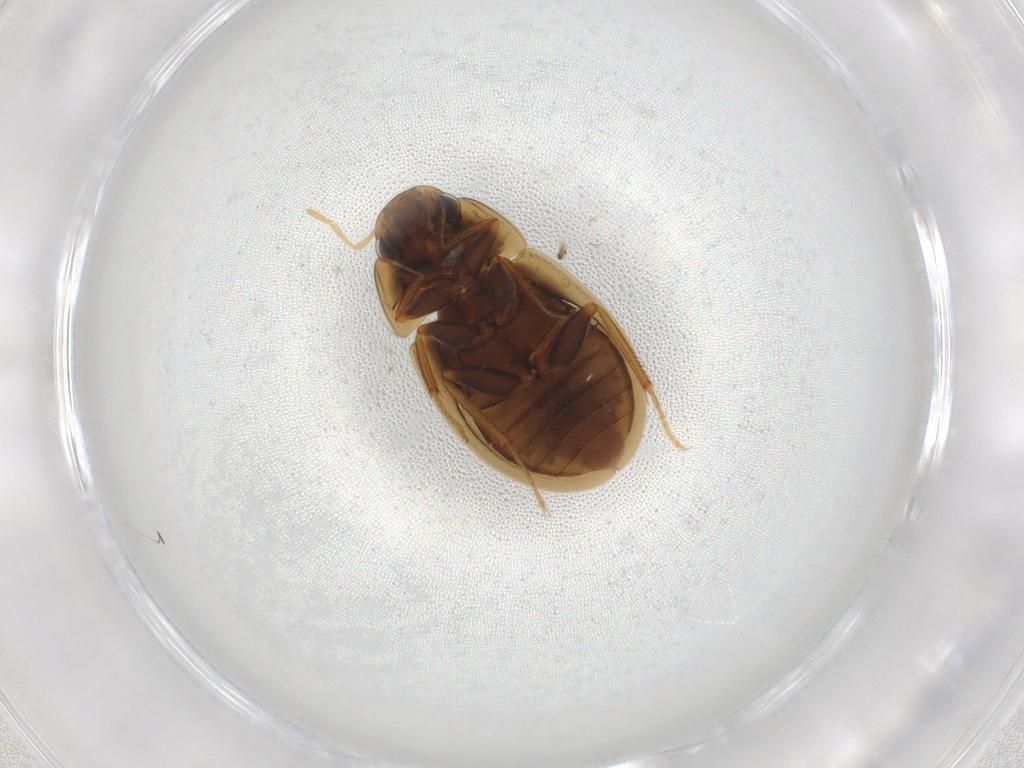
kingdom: Animalia
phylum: Arthropoda
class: Insecta
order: Coleoptera
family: Hydrophilidae
